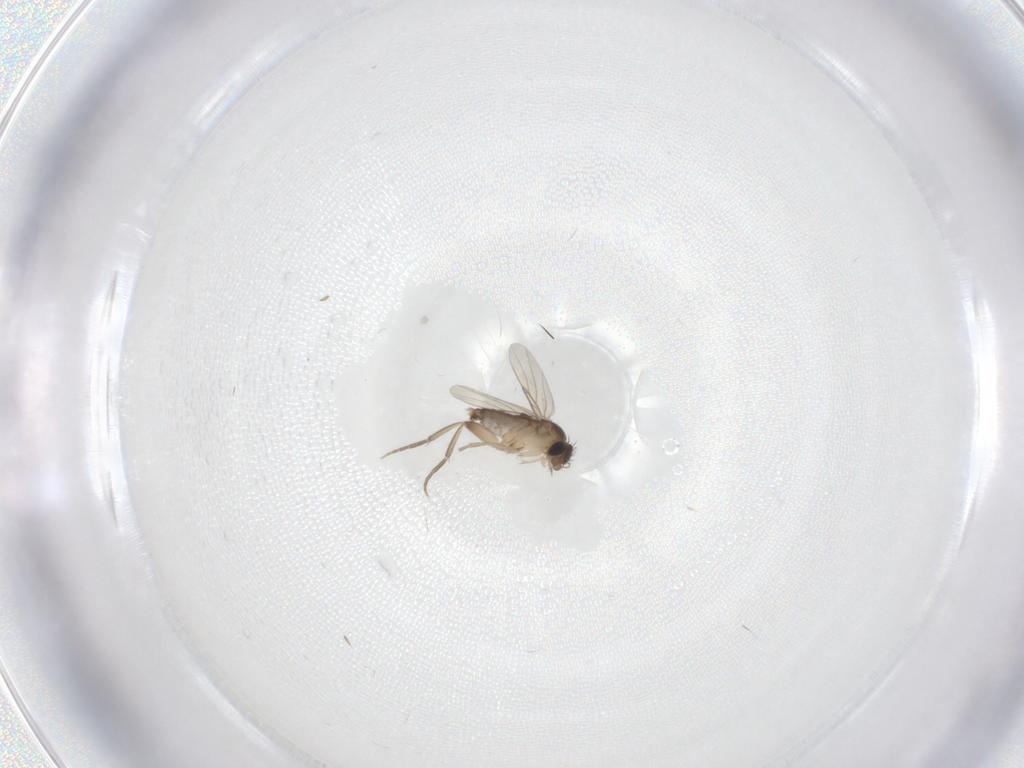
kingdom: Animalia
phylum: Arthropoda
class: Insecta
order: Diptera
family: Phoridae
